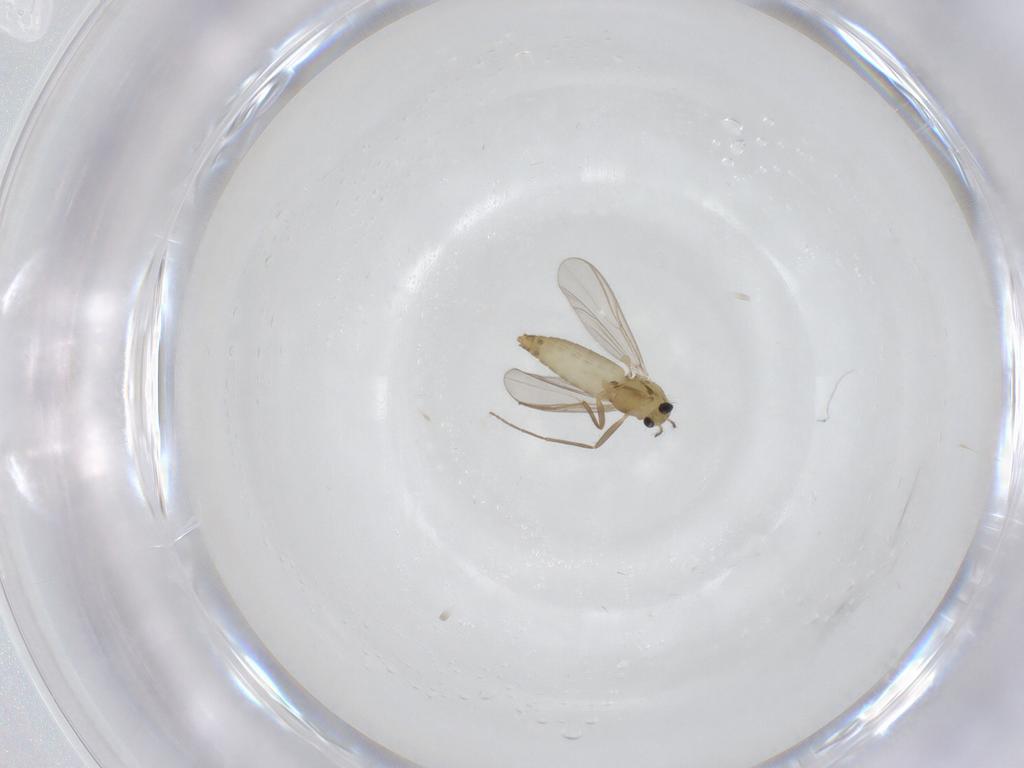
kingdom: Animalia
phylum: Arthropoda
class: Insecta
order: Diptera
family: Chironomidae
